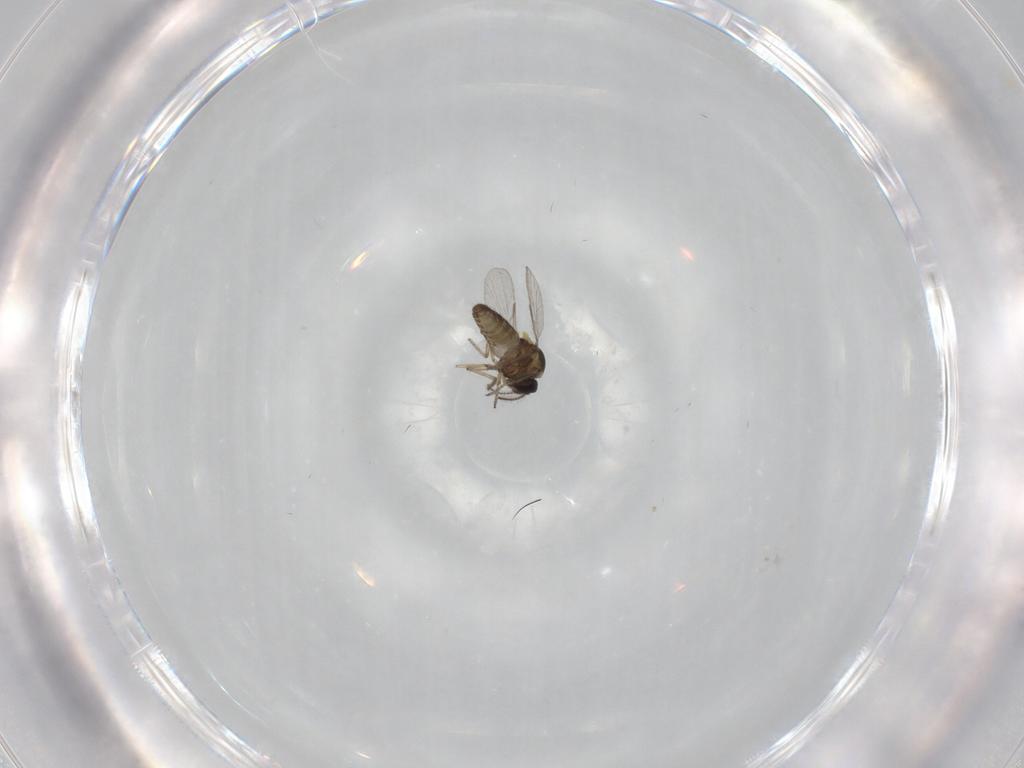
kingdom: Animalia
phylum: Arthropoda
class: Insecta
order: Diptera
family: Ceratopogonidae
